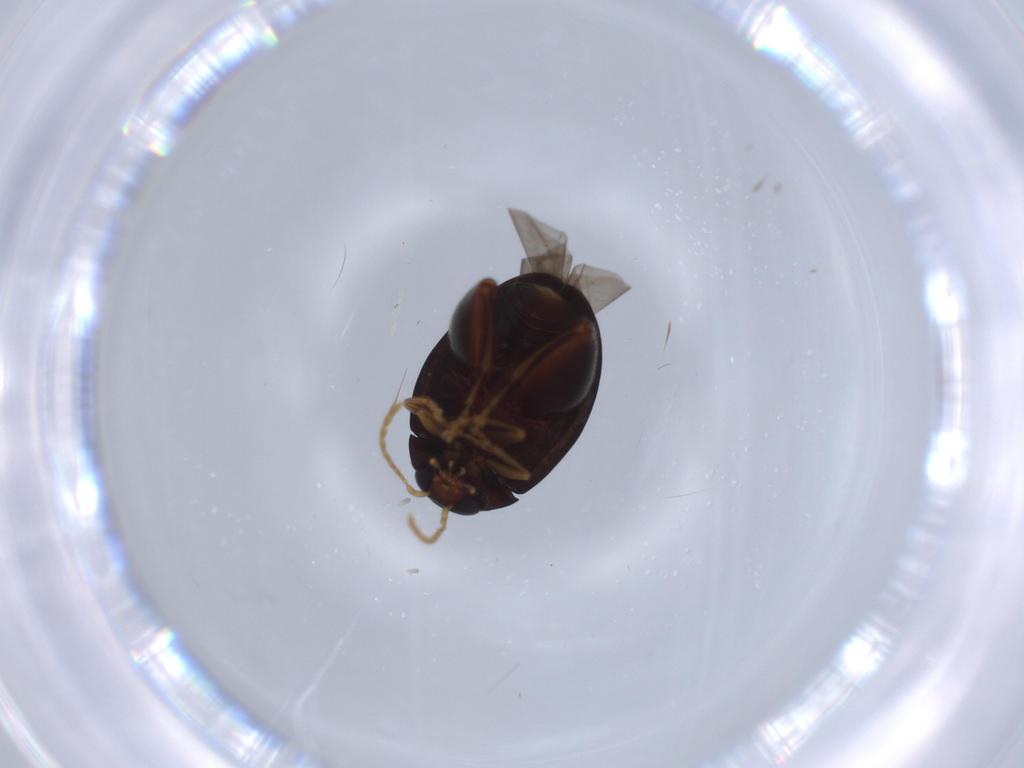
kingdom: Animalia
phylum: Arthropoda
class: Insecta
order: Coleoptera
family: Chrysomelidae
